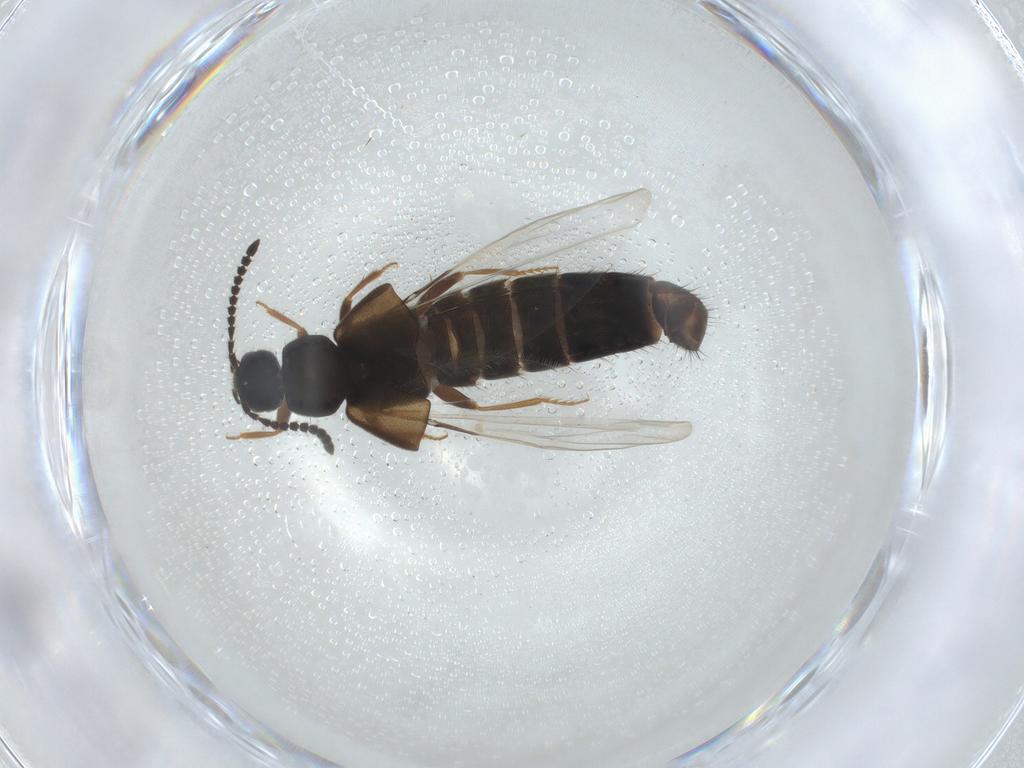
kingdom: Animalia
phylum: Arthropoda
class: Insecta
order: Coleoptera
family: Staphylinidae
